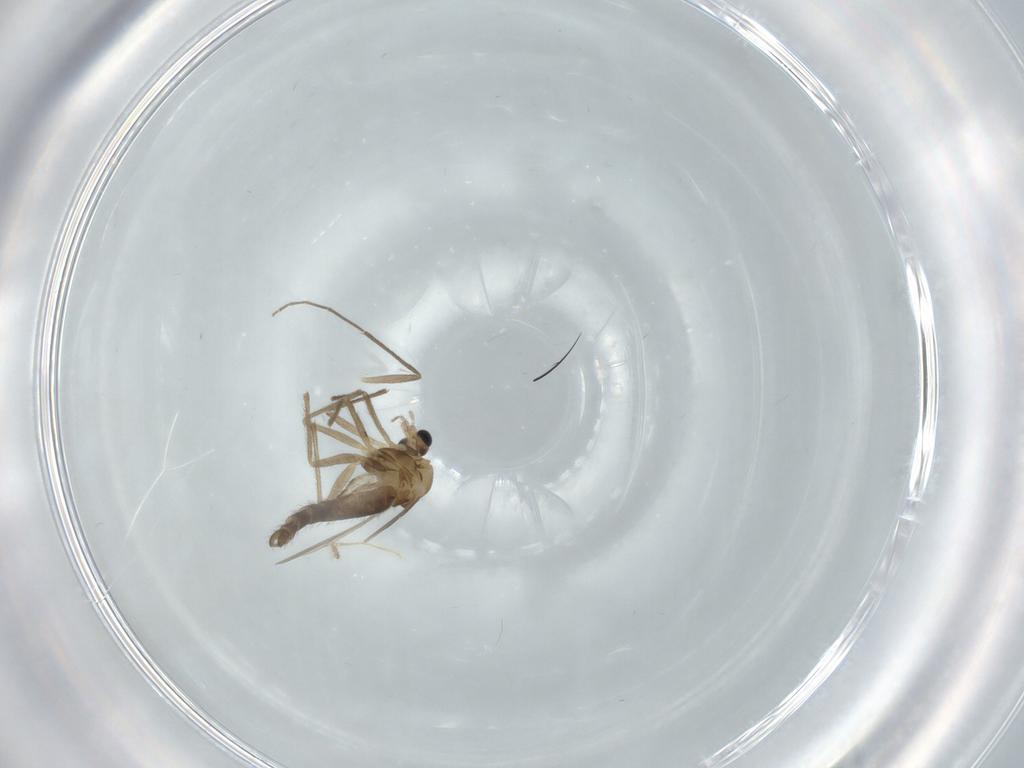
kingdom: Animalia
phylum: Arthropoda
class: Insecta
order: Diptera
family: Chironomidae
